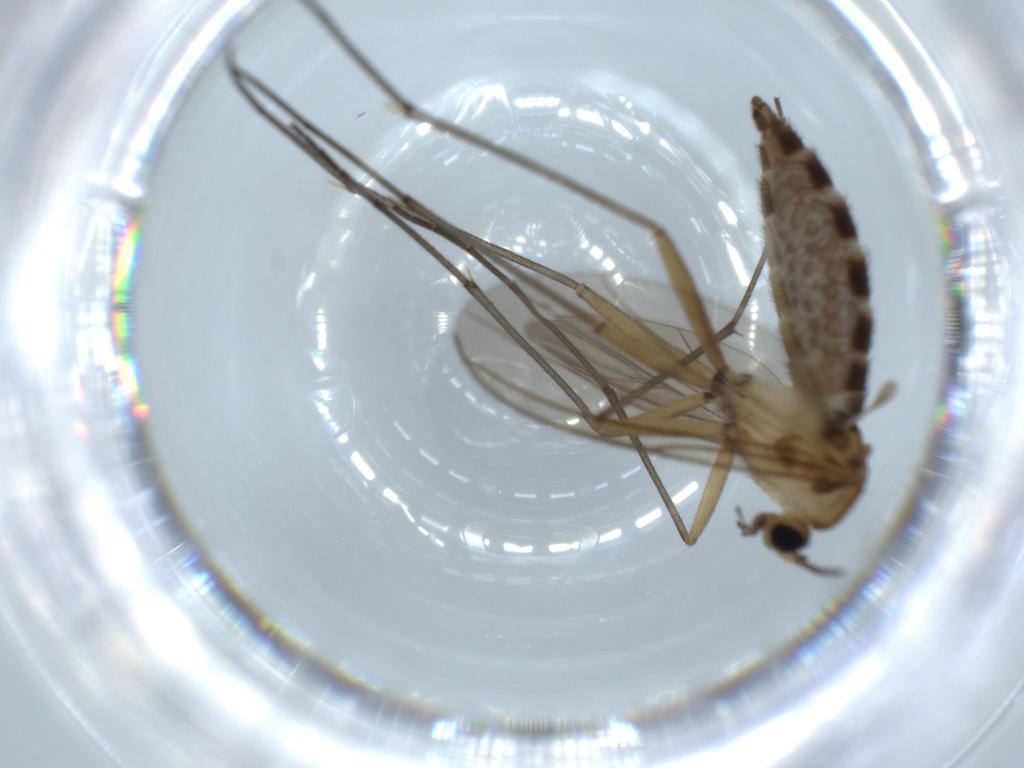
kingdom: Animalia
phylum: Arthropoda
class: Insecta
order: Diptera
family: Sciaridae
